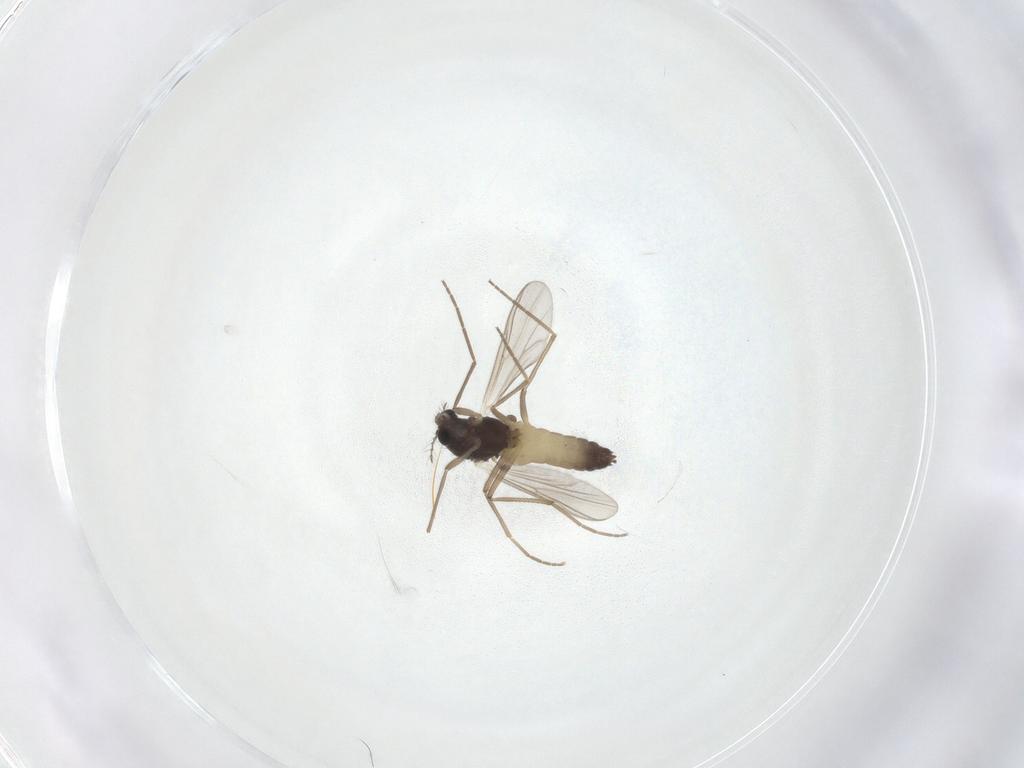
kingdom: Animalia
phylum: Arthropoda
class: Insecta
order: Diptera
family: Chironomidae
